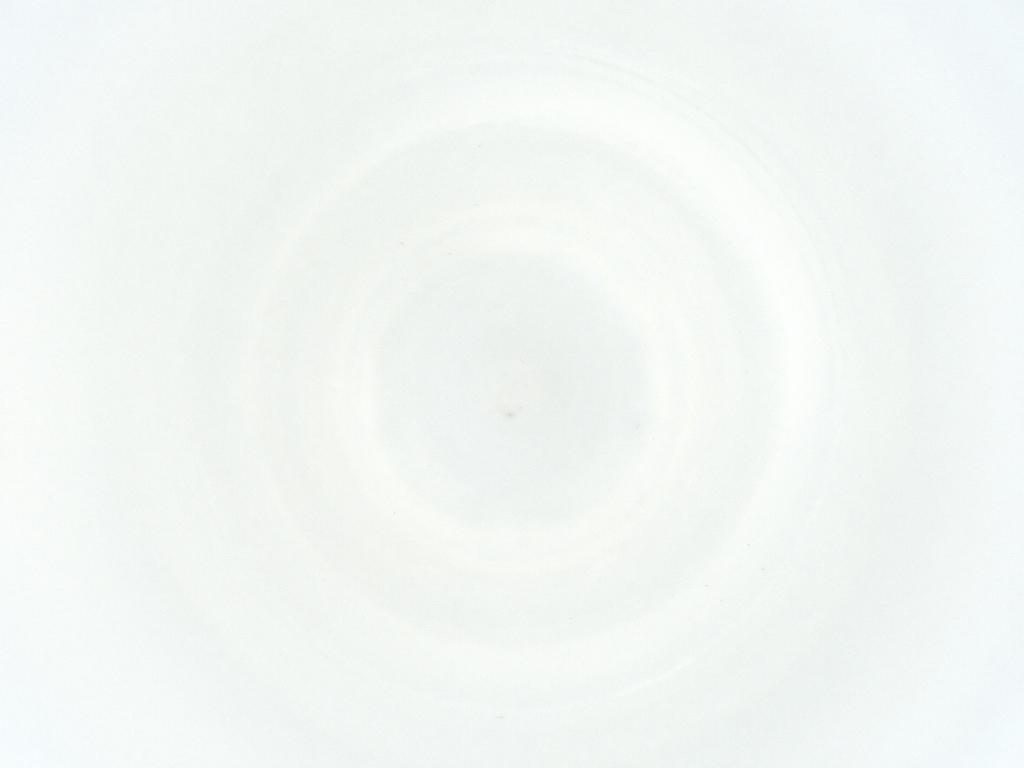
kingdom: Animalia
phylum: Arthropoda
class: Arachnida
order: Mesostigmata
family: Phytoseiidae
